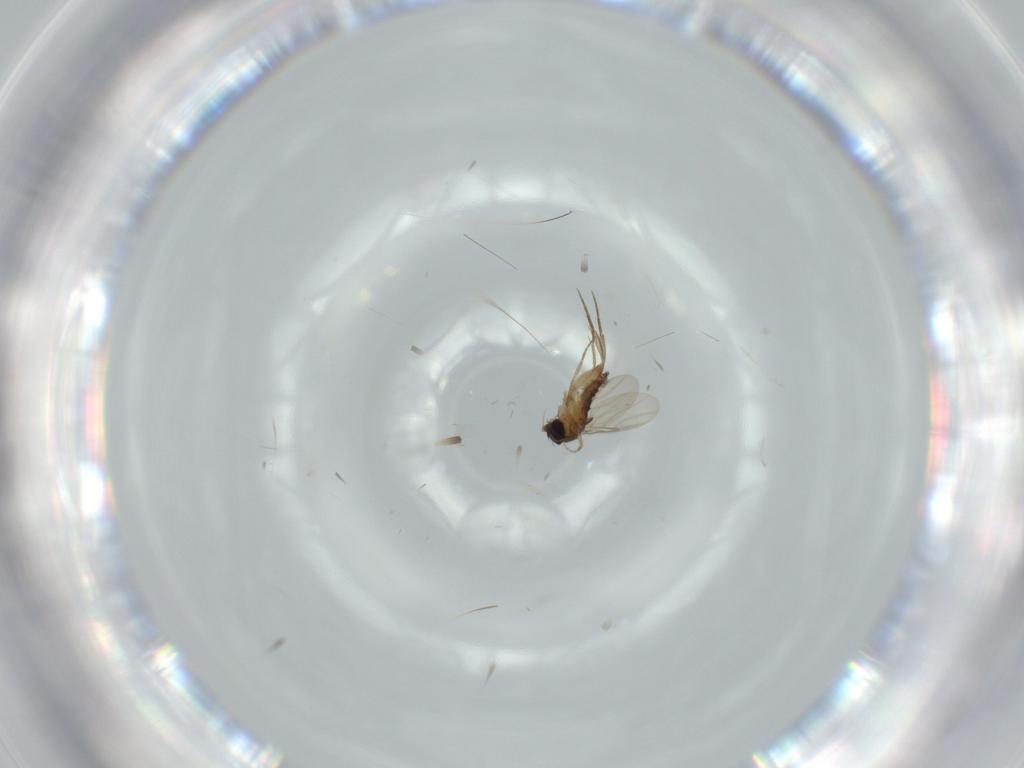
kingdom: Animalia
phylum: Arthropoda
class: Insecta
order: Diptera
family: Phoridae
